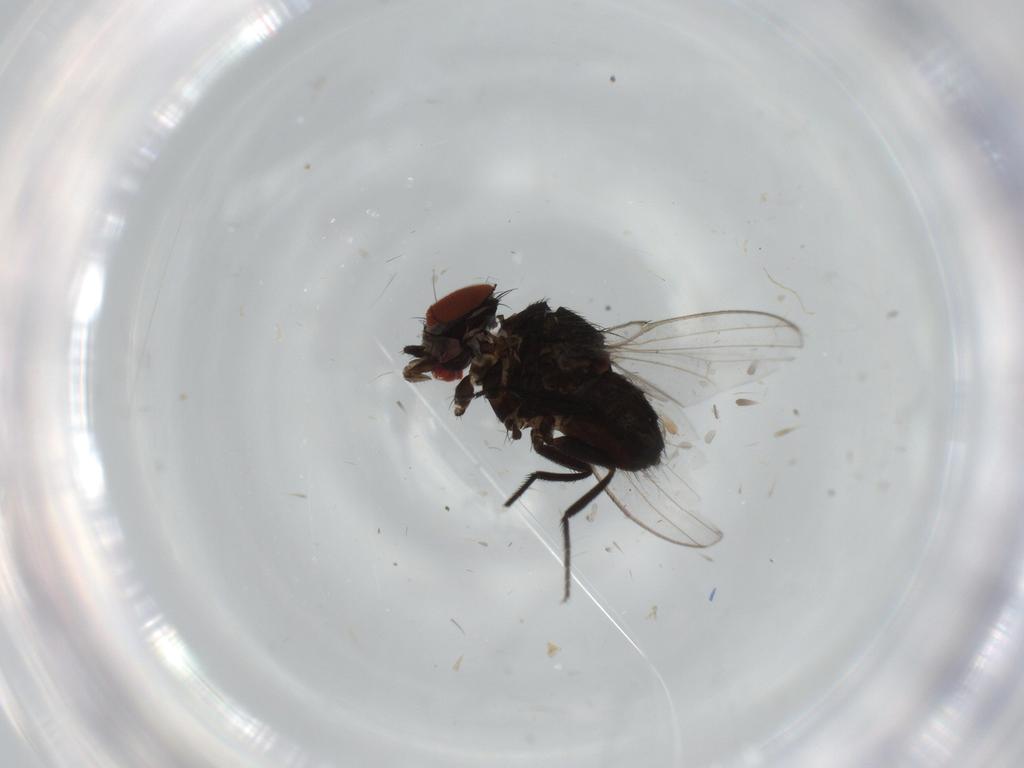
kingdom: Animalia
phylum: Arthropoda
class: Insecta
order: Diptera
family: Milichiidae
